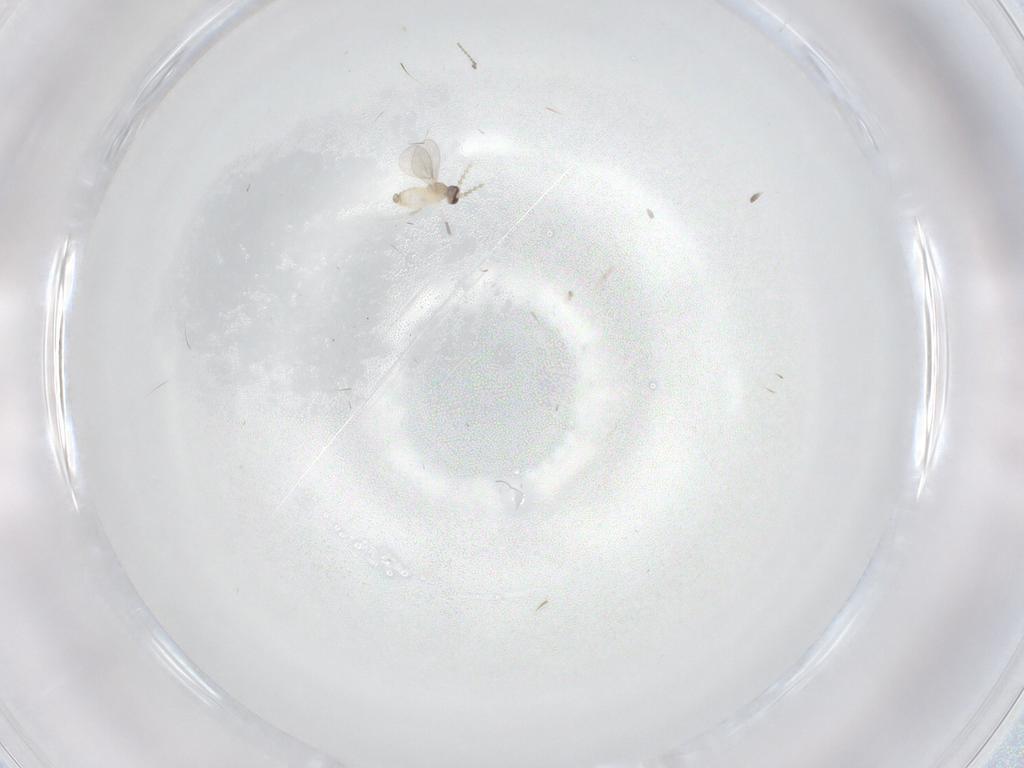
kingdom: Animalia
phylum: Arthropoda
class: Insecta
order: Diptera
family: Cecidomyiidae
